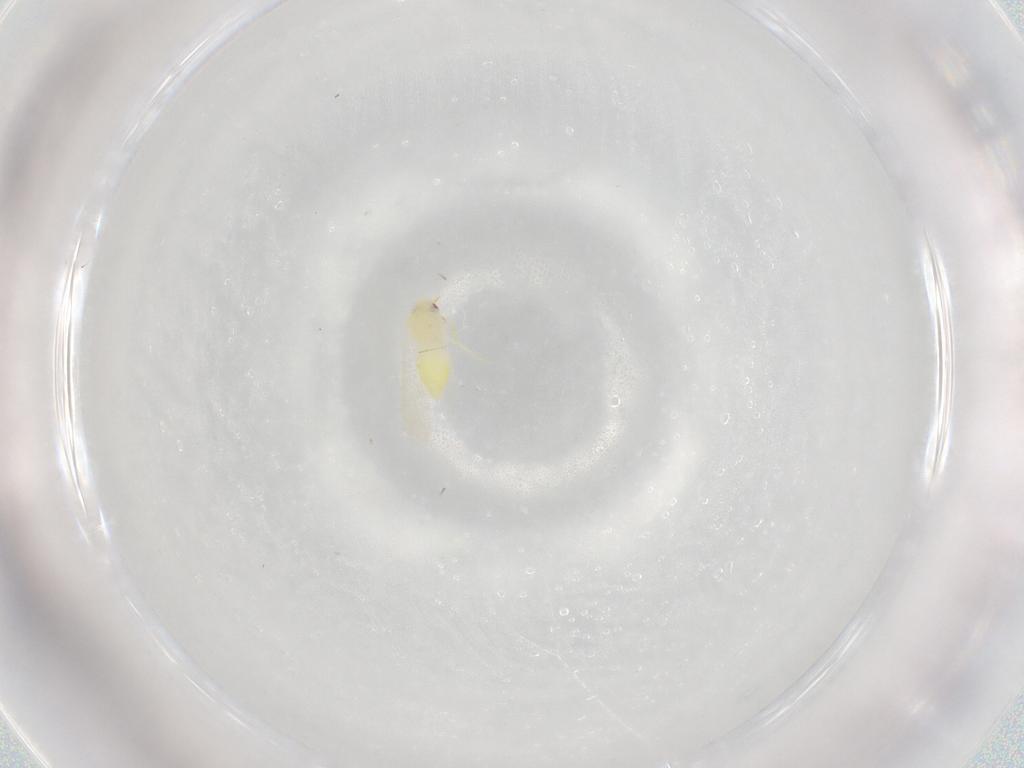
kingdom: Animalia
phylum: Arthropoda
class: Insecta
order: Hemiptera
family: Aleyrodidae
